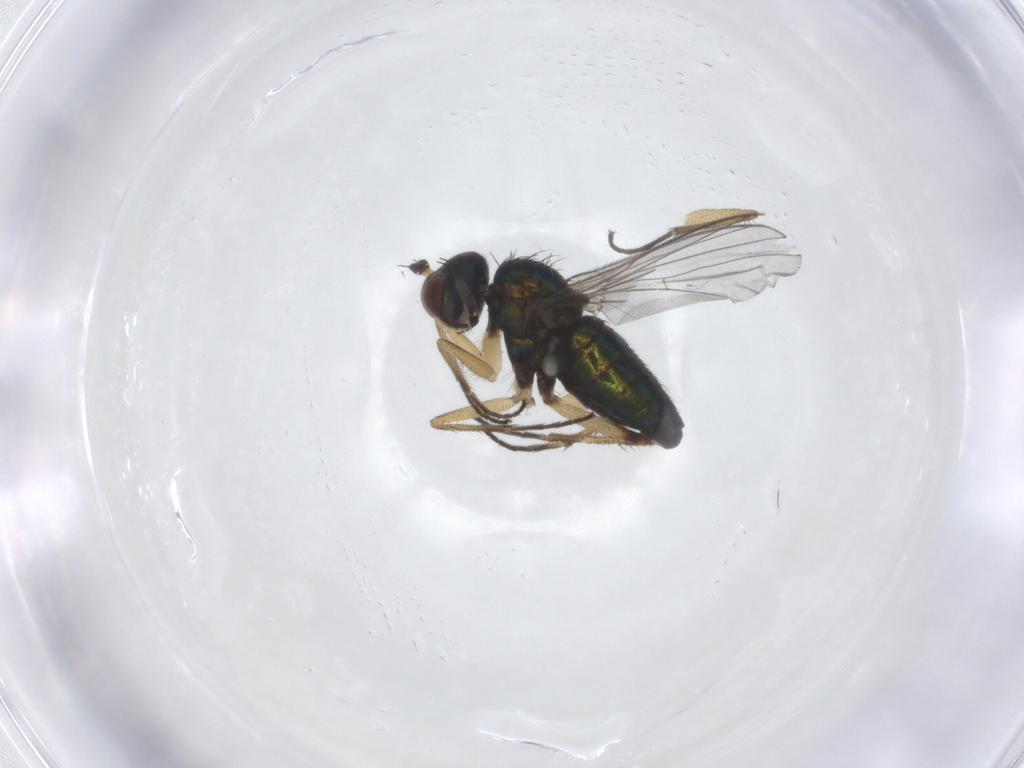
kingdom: Animalia
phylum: Arthropoda
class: Insecta
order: Diptera
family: Dolichopodidae
